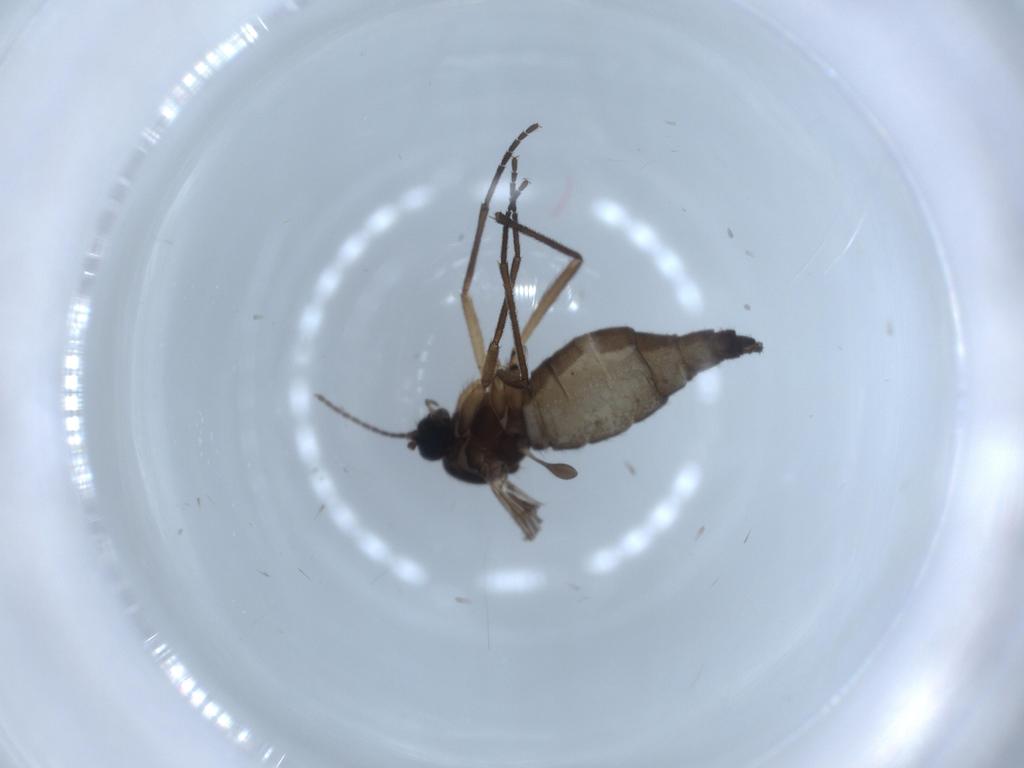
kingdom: Animalia
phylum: Arthropoda
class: Insecta
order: Diptera
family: Sciaridae
